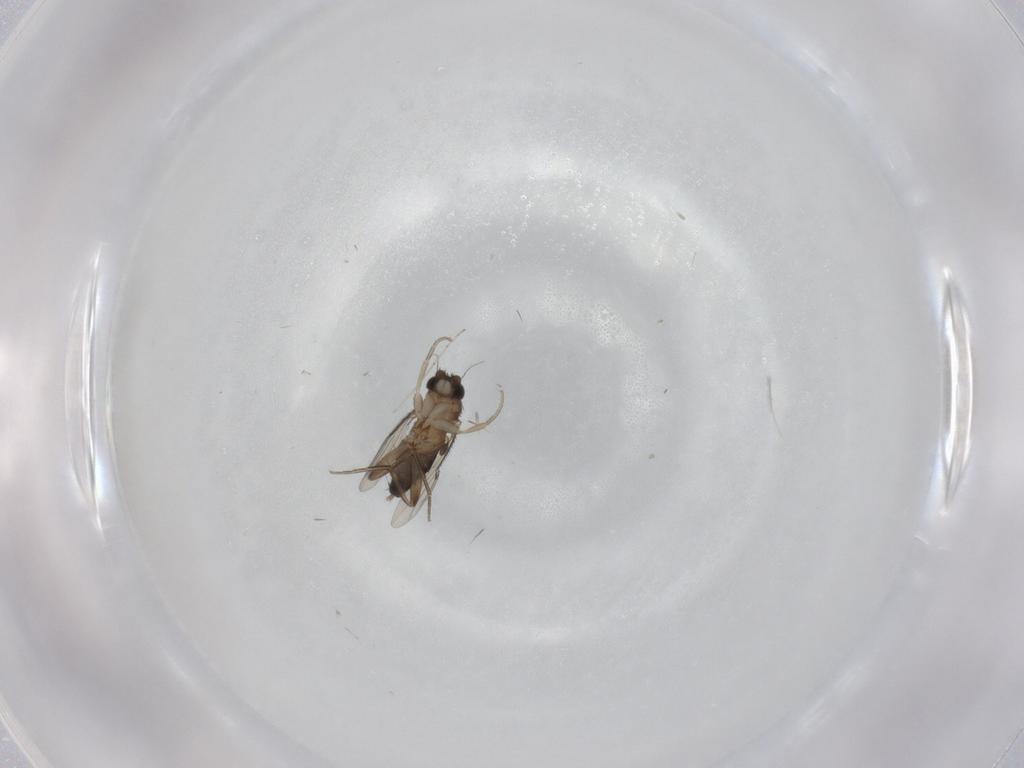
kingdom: Animalia
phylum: Arthropoda
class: Insecta
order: Diptera
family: Phoridae
